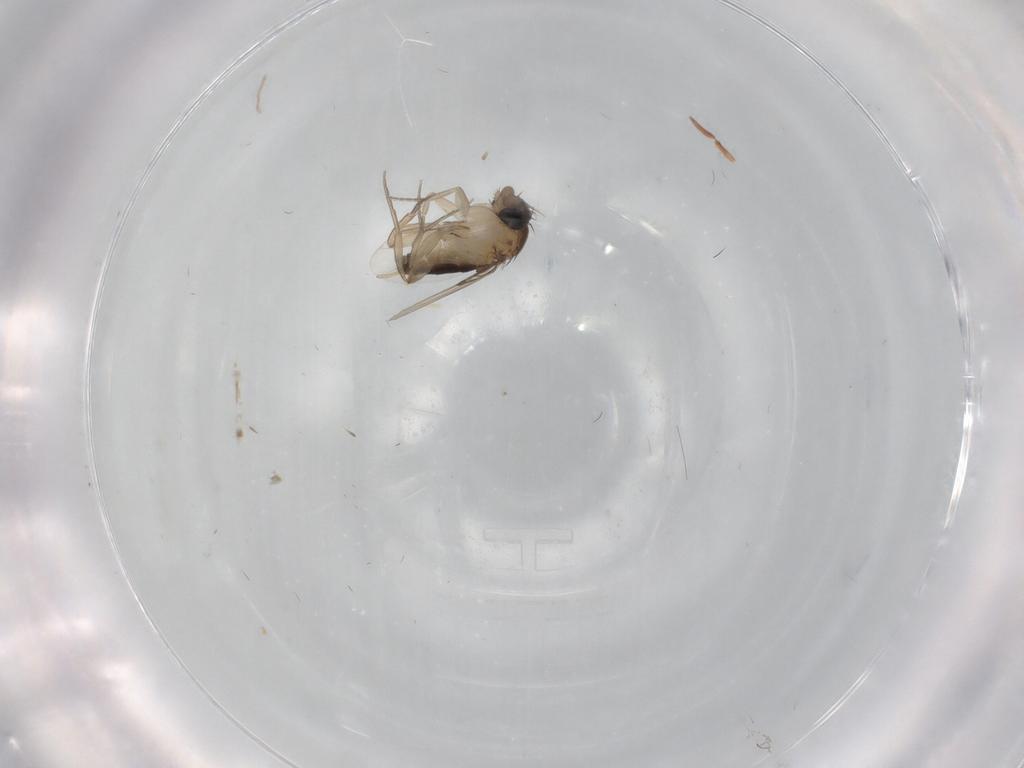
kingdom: Animalia
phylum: Arthropoda
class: Insecta
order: Diptera
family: Phoridae
